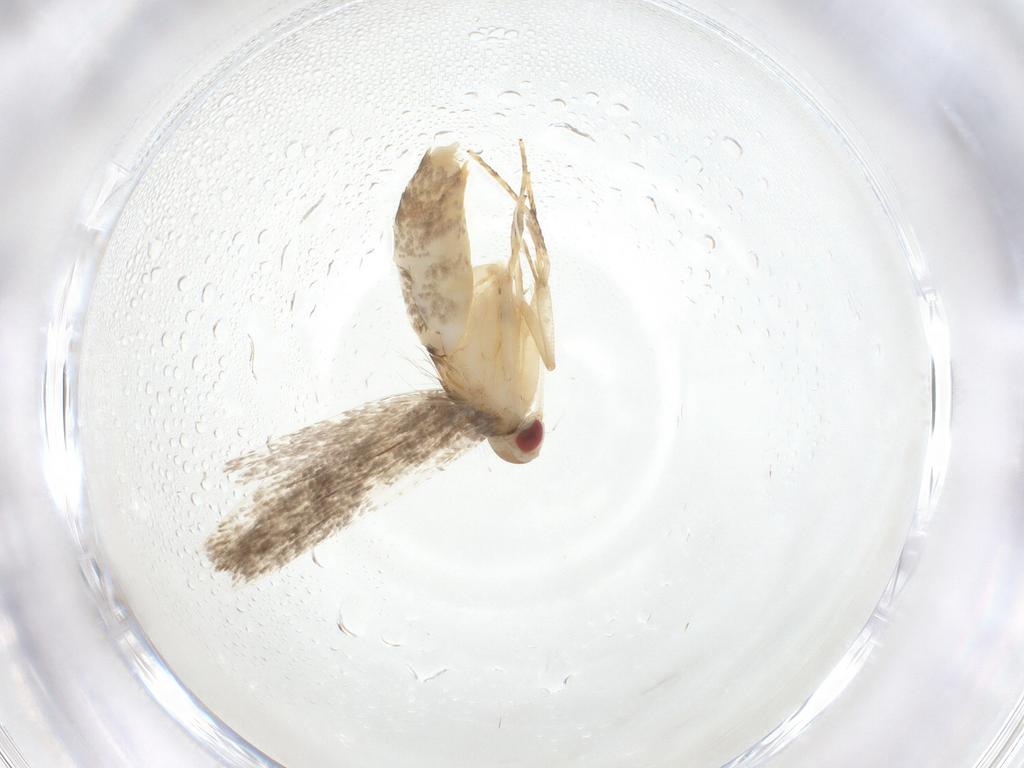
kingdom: Animalia
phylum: Arthropoda
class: Insecta
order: Lepidoptera
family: Cosmopterigidae
